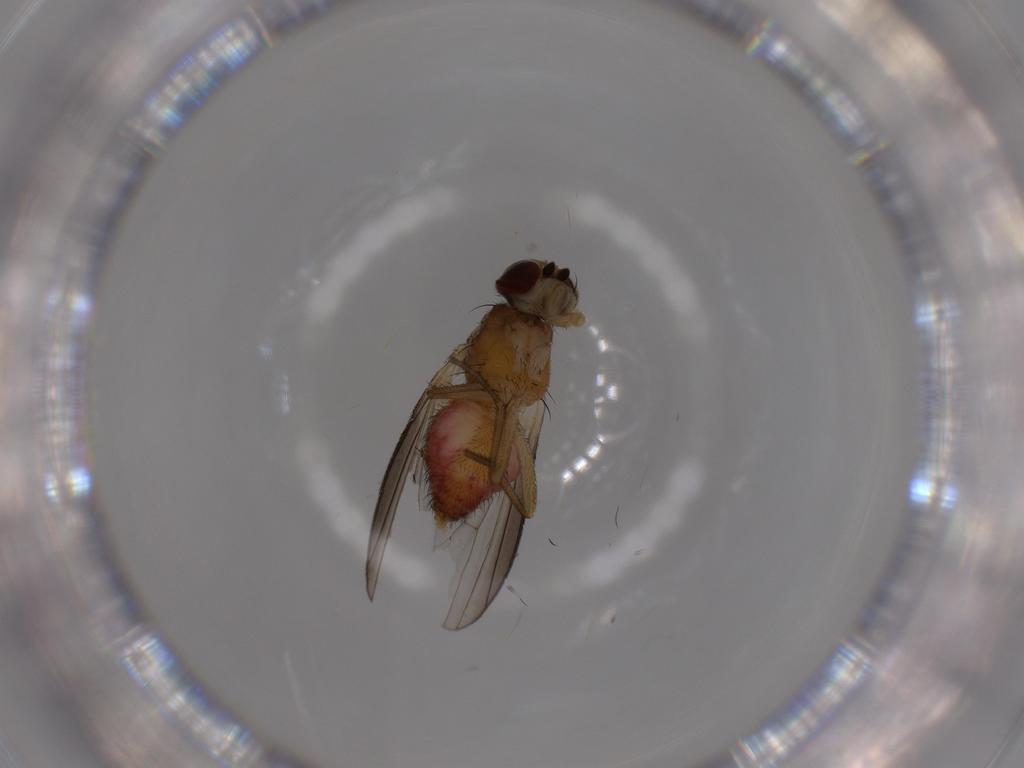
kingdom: Animalia
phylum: Arthropoda
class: Insecta
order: Diptera
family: Heleomyzidae
